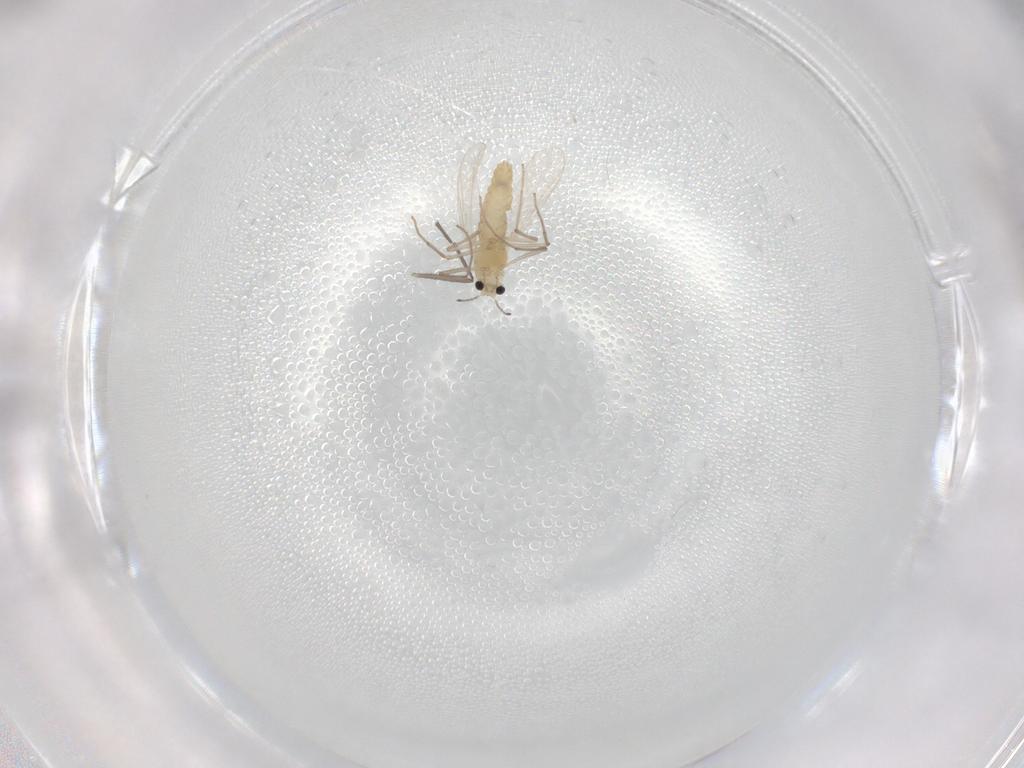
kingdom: Animalia
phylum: Arthropoda
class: Insecta
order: Diptera
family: Chironomidae
